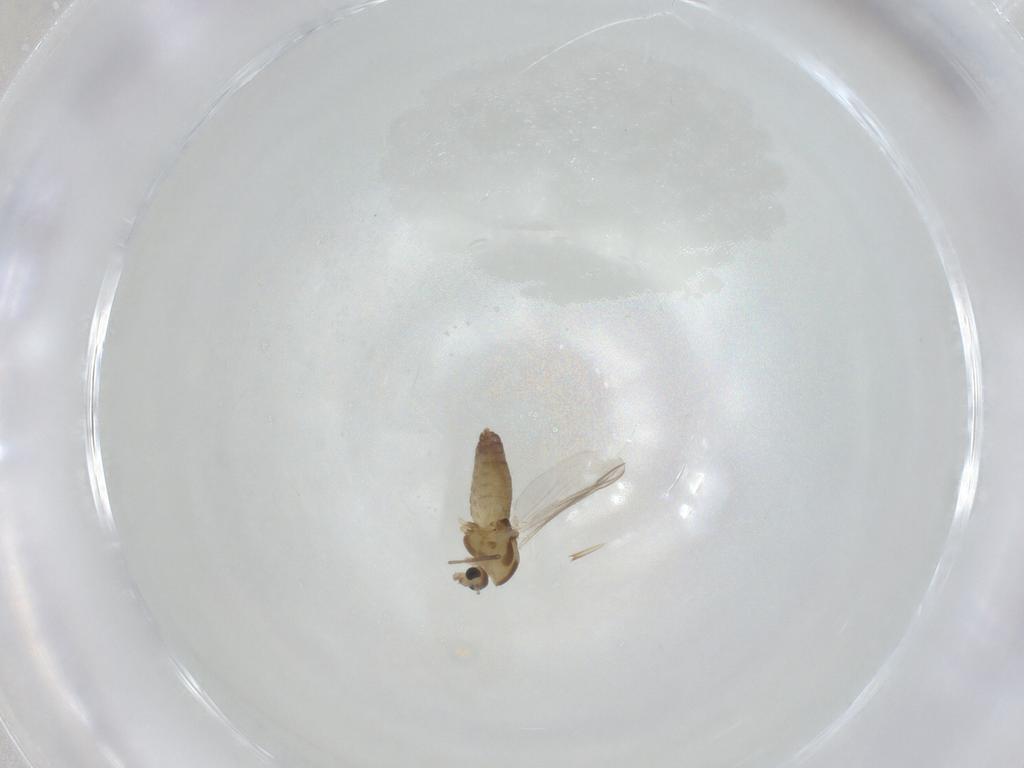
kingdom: Animalia
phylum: Arthropoda
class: Insecta
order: Diptera
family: Chironomidae
